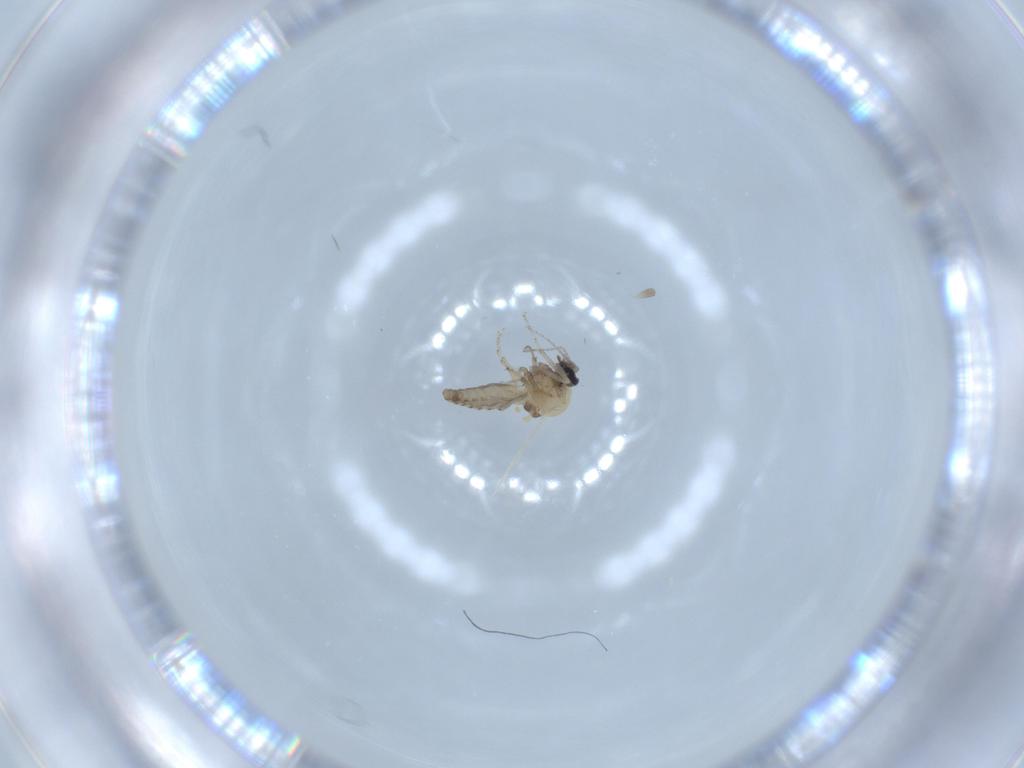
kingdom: Animalia
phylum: Arthropoda
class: Insecta
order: Diptera
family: Ceratopogonidae
